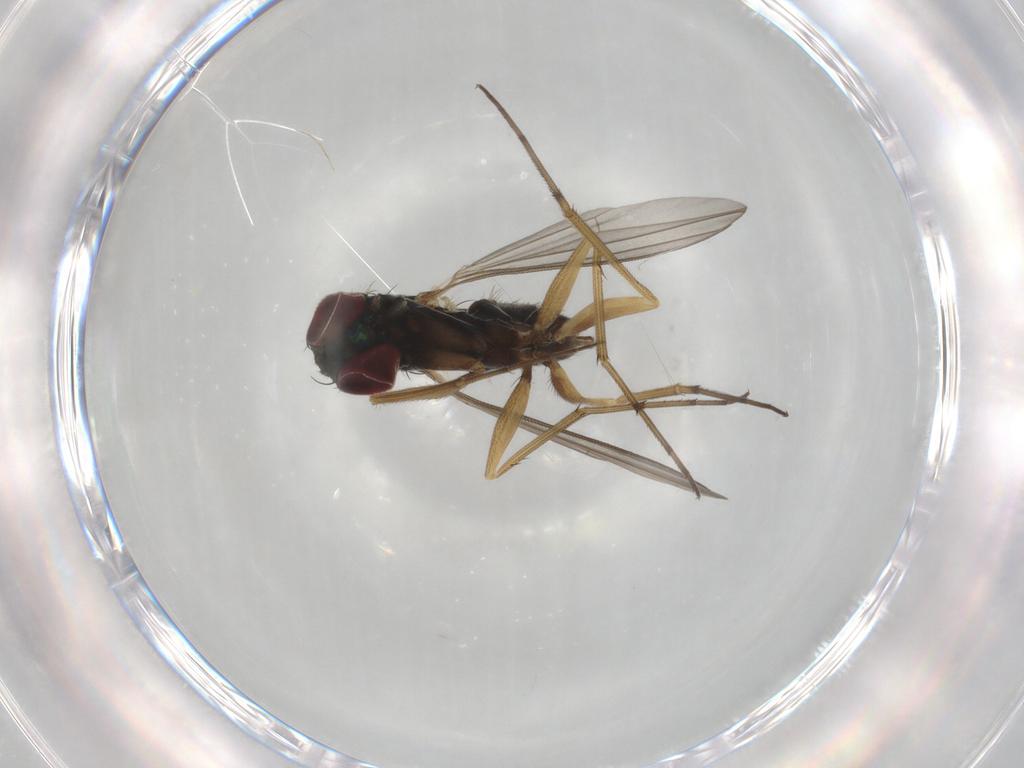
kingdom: Animalia
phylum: Arthropoda
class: Insecta
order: Diptera
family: Dolichopodidae
